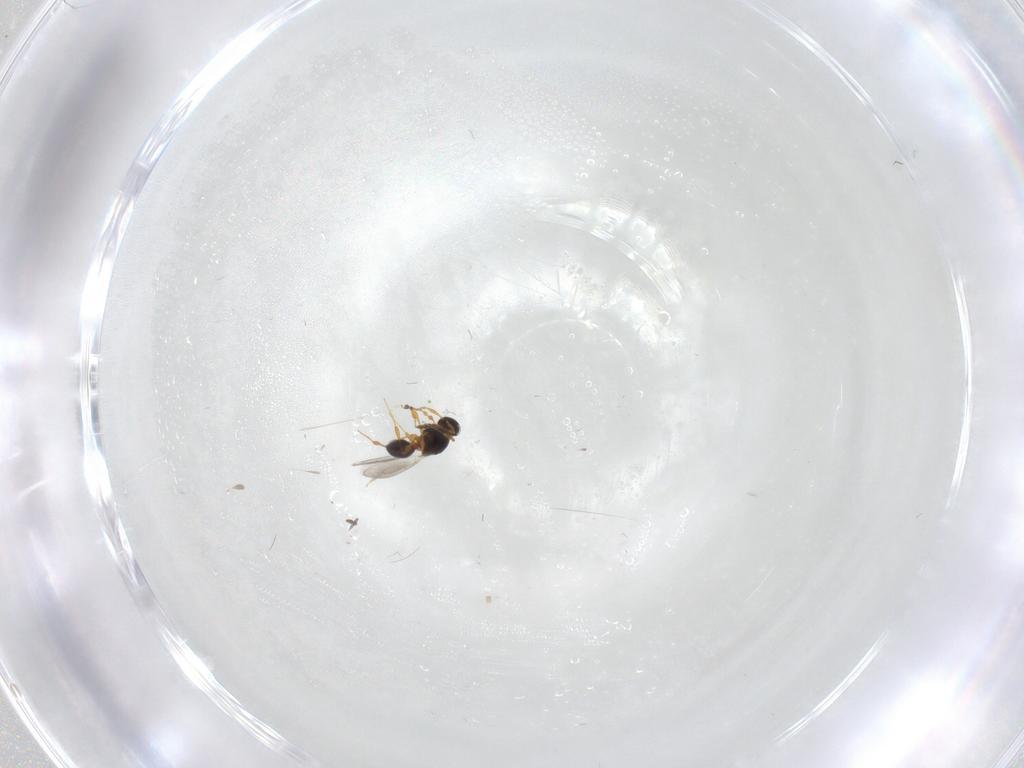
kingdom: Animalia
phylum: Arthropoda
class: Insecta
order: Hymenoptera
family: Platygastridae
